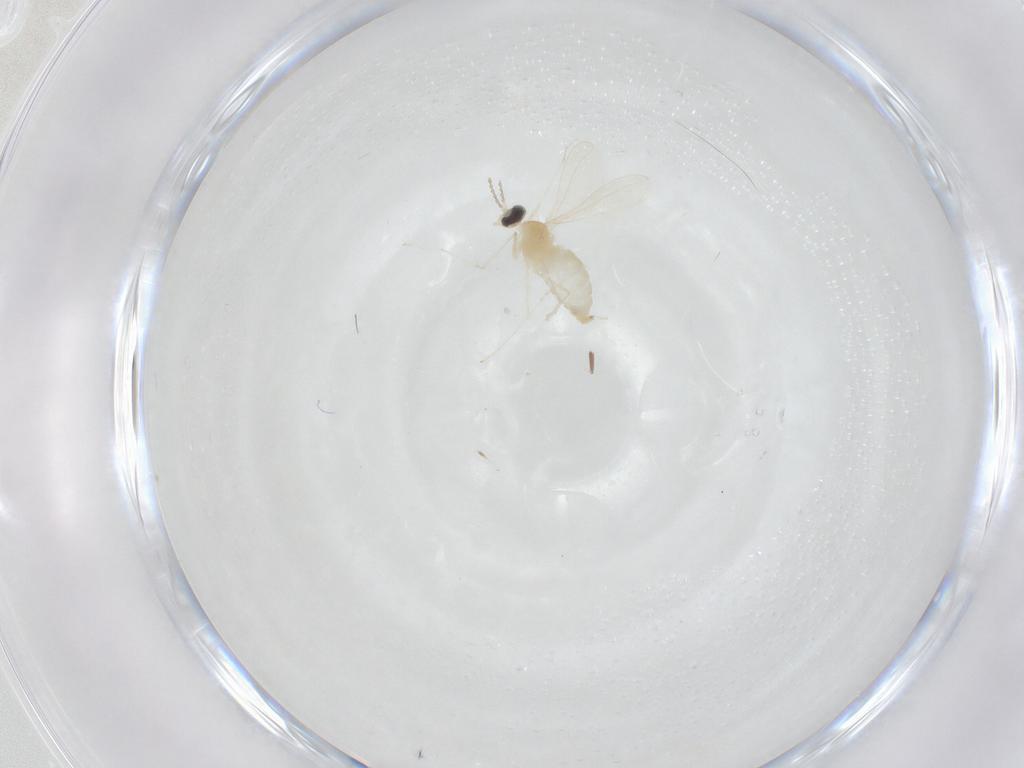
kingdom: Animalia
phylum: Arthropoda
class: Insecta
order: Diptera
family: Cecidomyiidae
